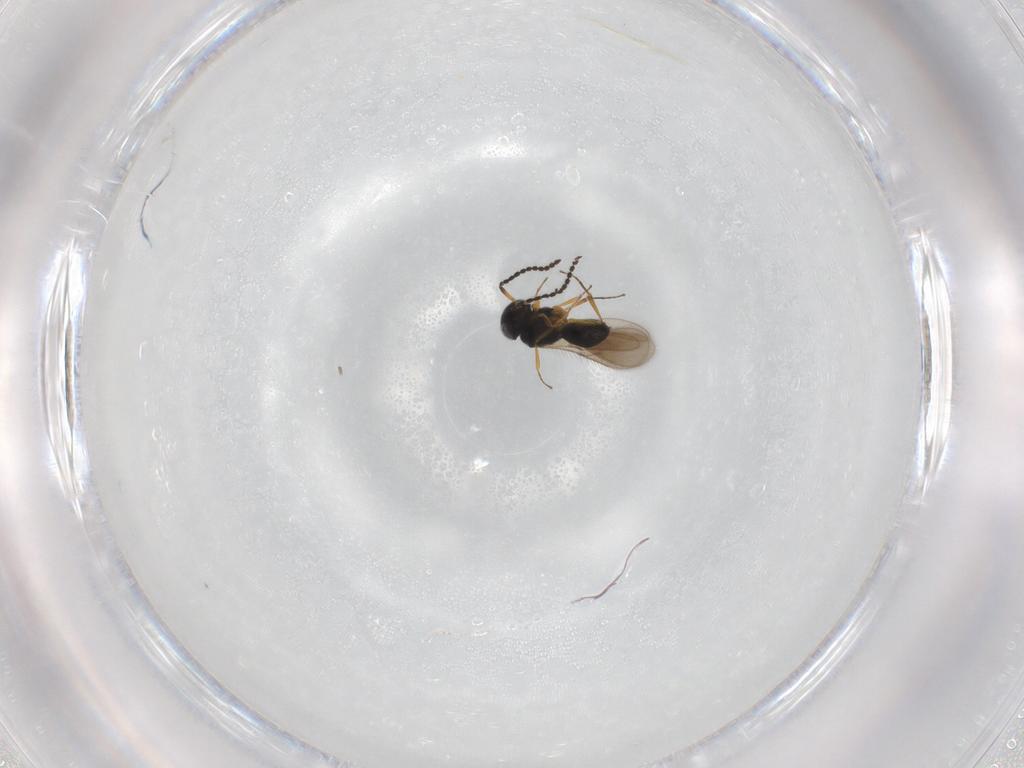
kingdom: Animalia
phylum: Arthropoda
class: Insecta
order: Hymenoptera
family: Scelionidae
